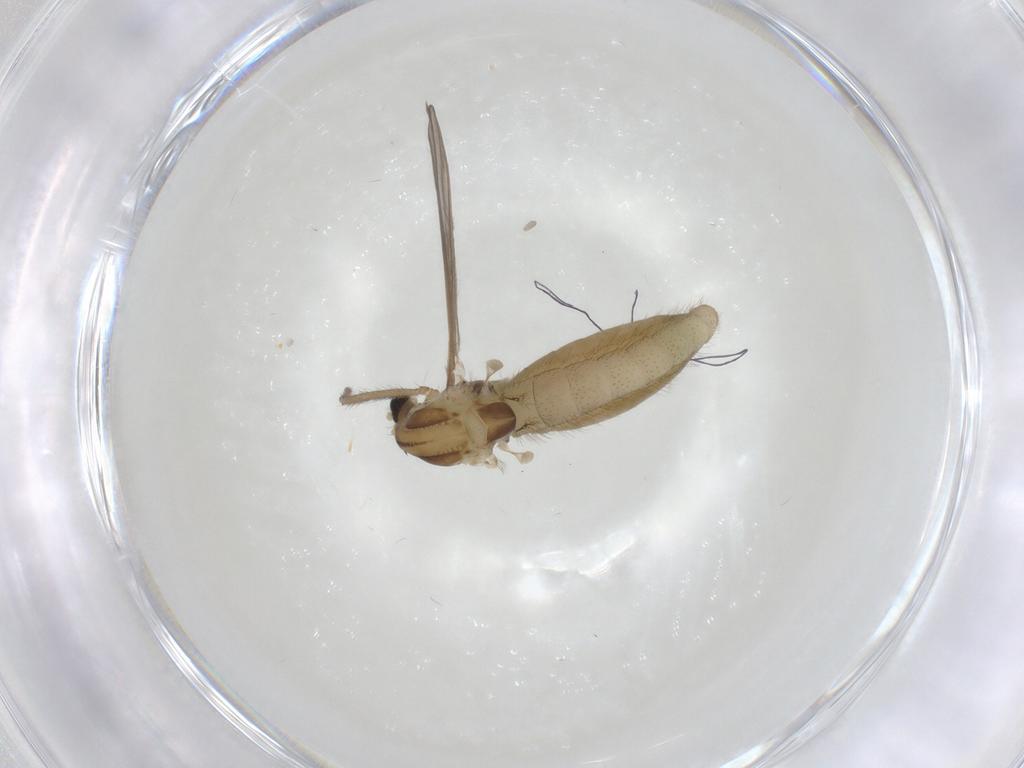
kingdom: Animalia
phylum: Arthropoda
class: Insecta
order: Diptera
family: Chironomidae
